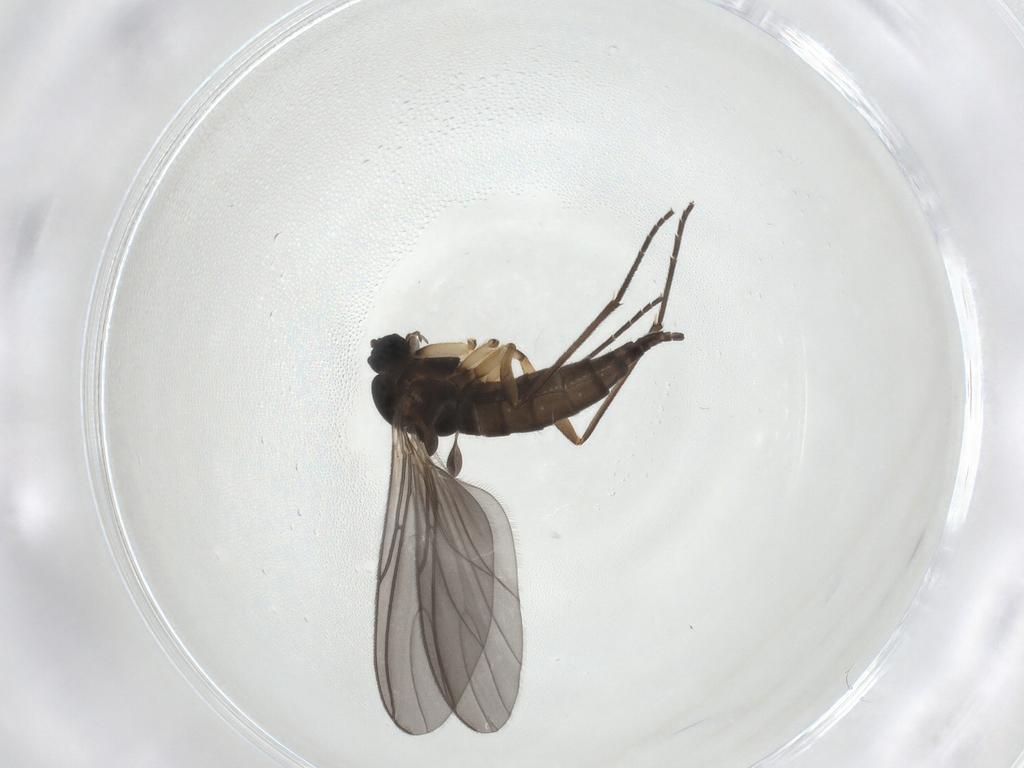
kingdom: Animalia
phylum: Arthropoda
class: Insecta
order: Diptera
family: Sciaridae
